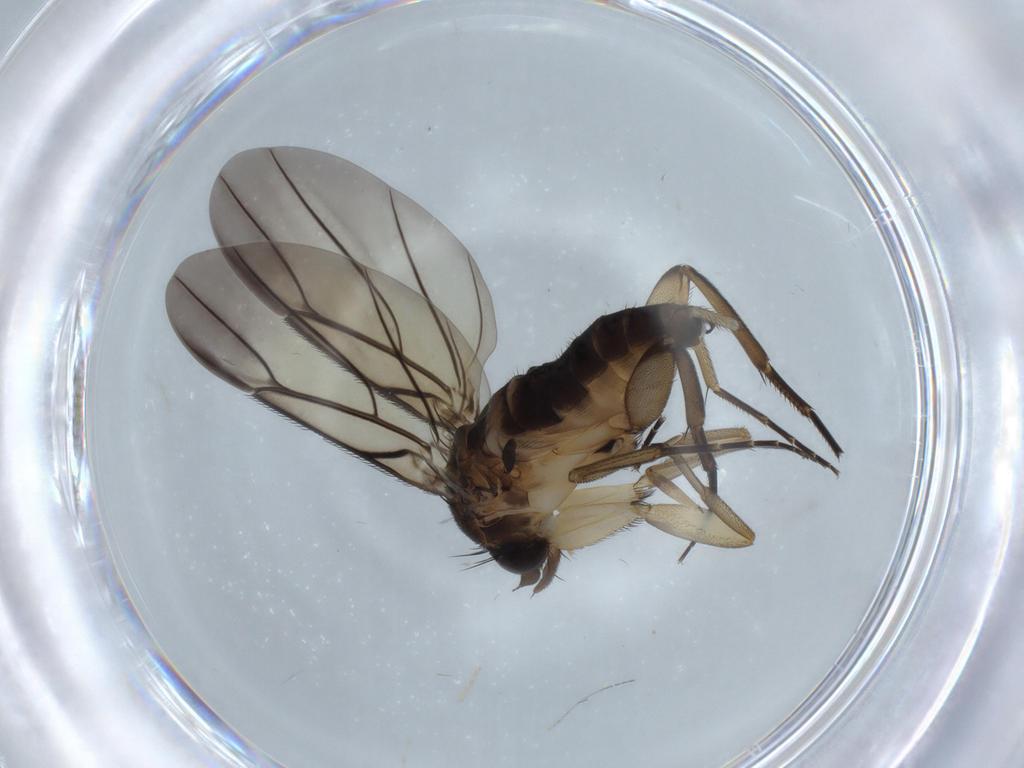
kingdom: Animalia
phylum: Arthropoda
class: Insecta
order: Diptera
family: Phoridae
